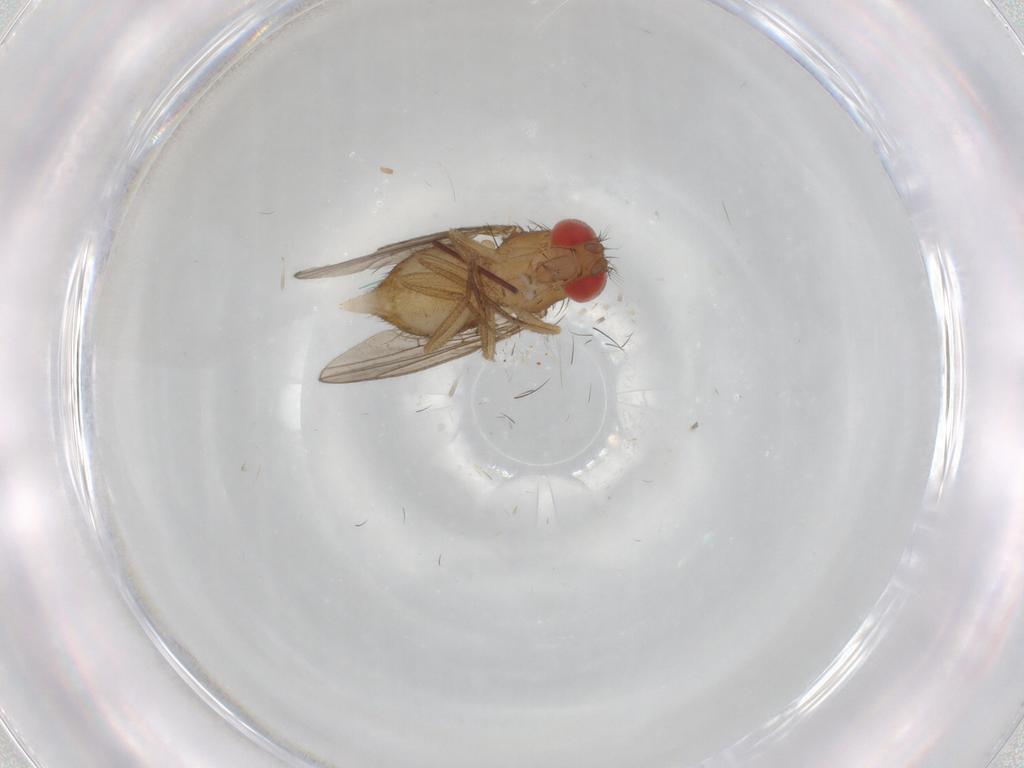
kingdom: Animalia
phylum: Arthropoda
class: Insecta
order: Diptera
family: Drosophilidae
